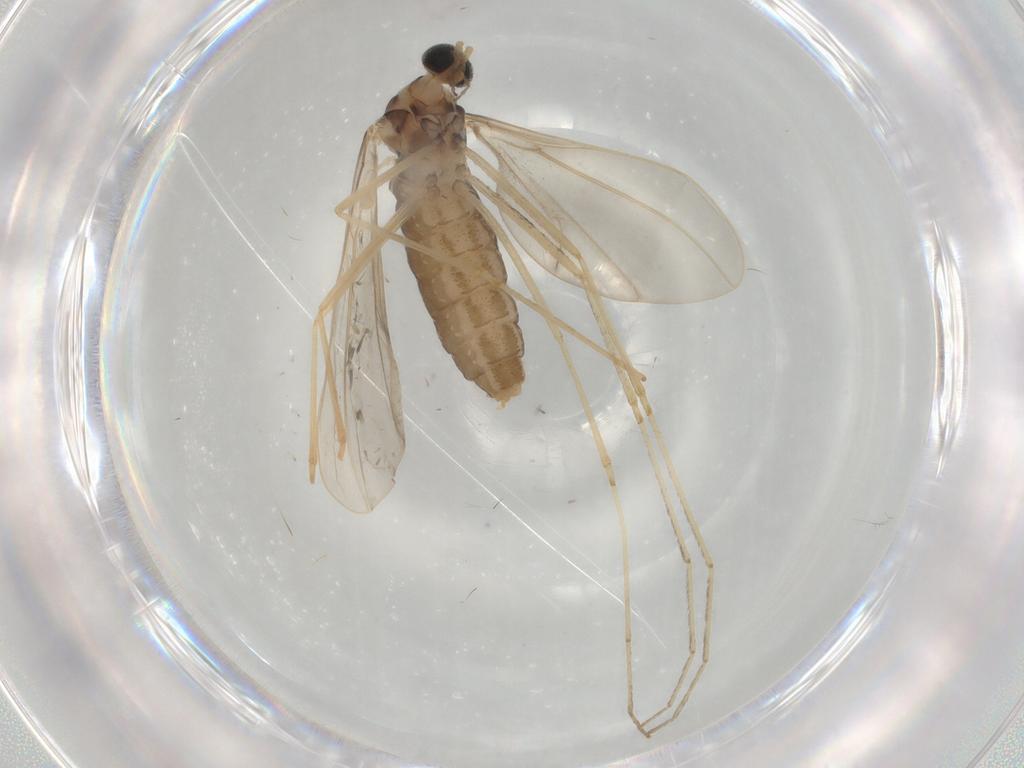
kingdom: Animalia
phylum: Arthropoda
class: Insecta
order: Diptera
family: Cecidomyiidae
